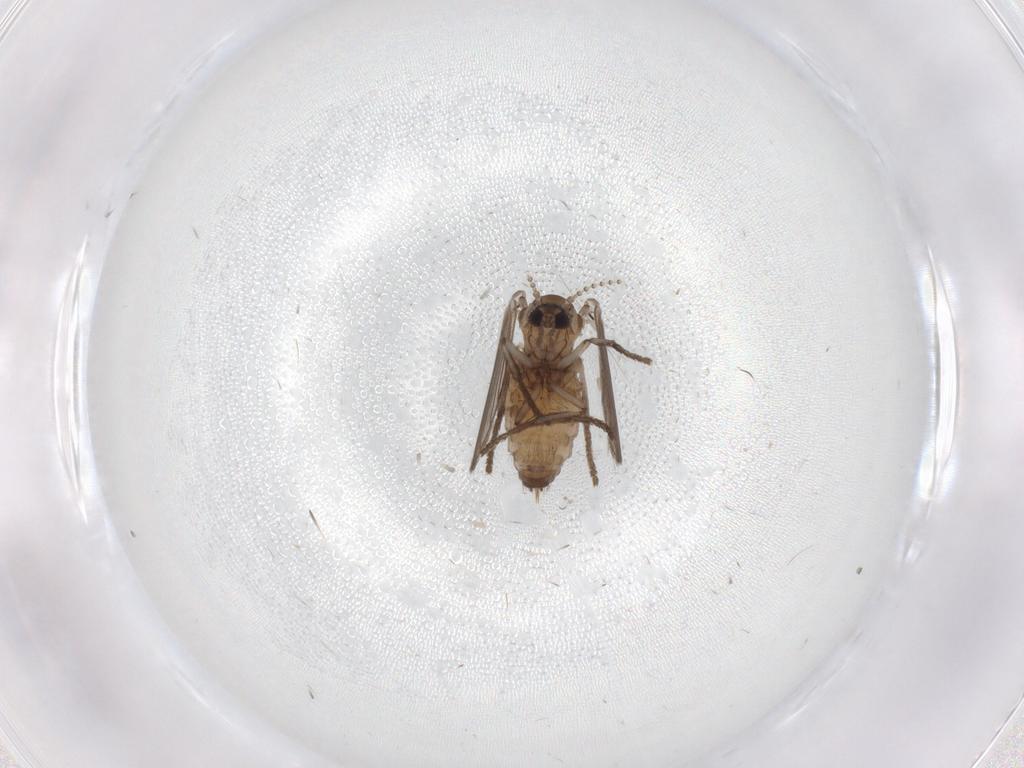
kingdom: Animalia
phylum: Arthropoda
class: Insecta
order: Diptera
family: Psychodidae
